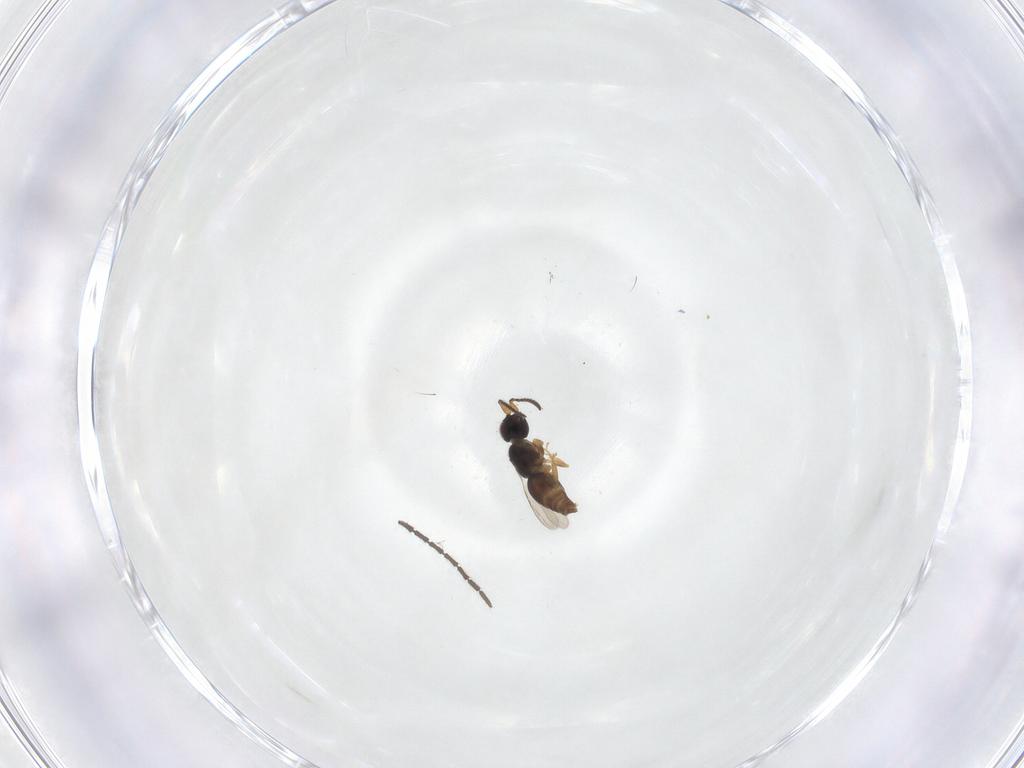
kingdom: Animalia
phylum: Arthropoda
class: Insecta
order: Hymenoptera
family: Ceraphronidae
